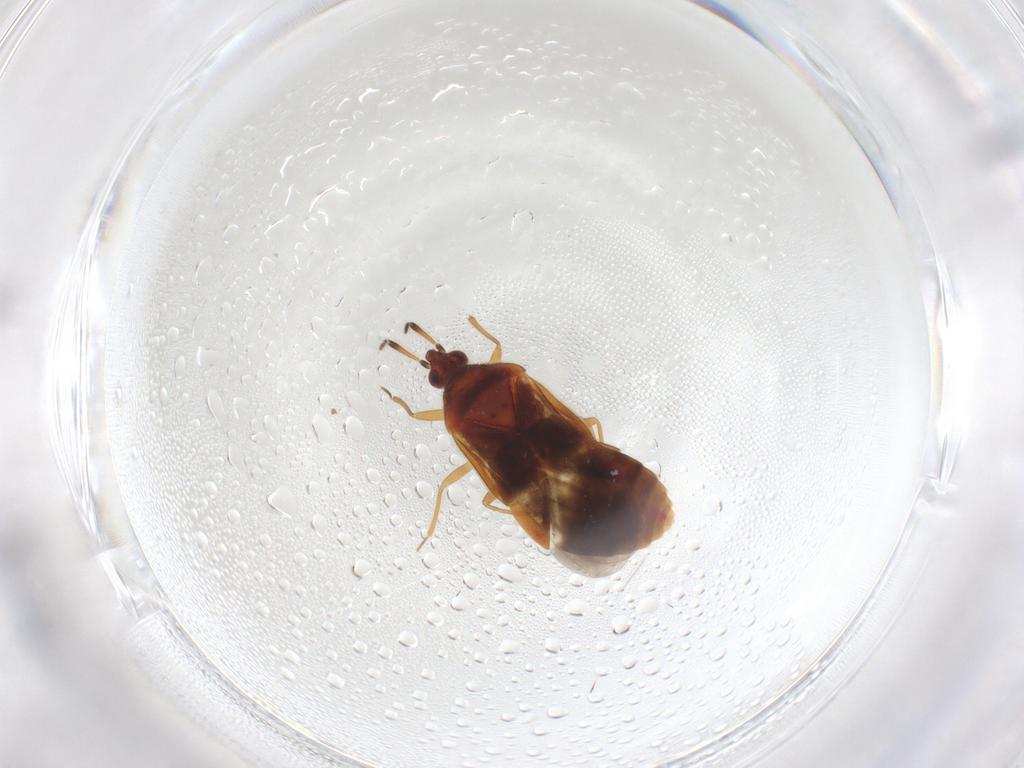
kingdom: Animalia
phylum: Arthropoda
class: Insecta
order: Hemiptera
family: Anthocoridae
